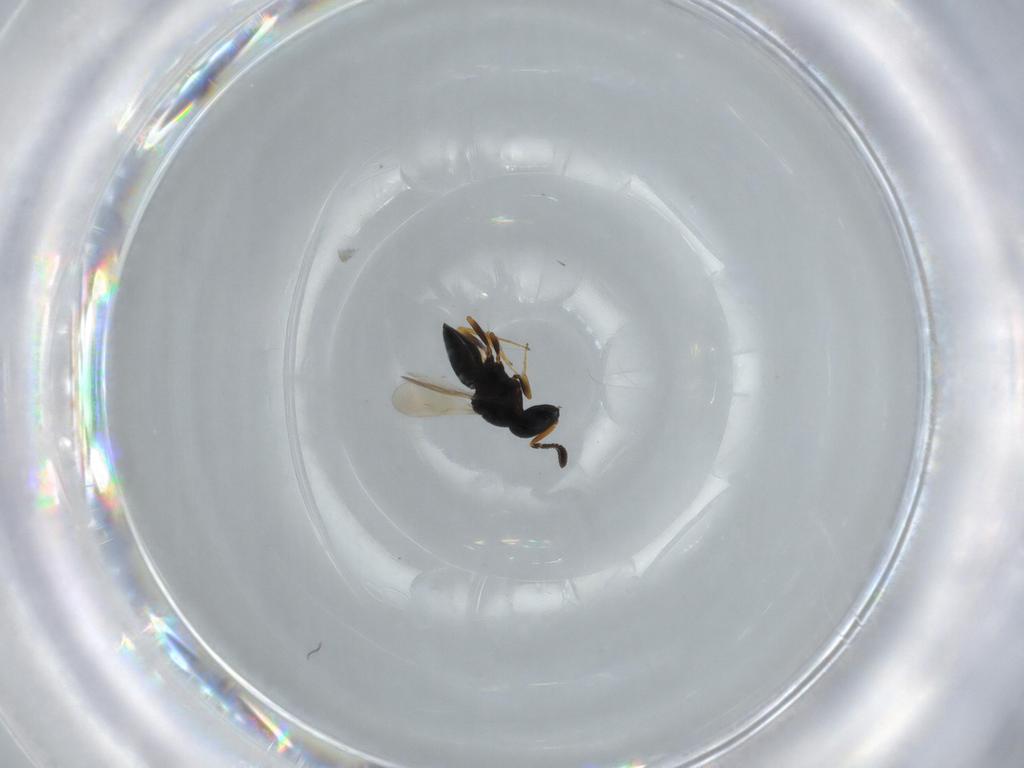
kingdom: Animalia
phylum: Arthropoda
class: Insecta
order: Hymenoptera
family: Scelionidae
